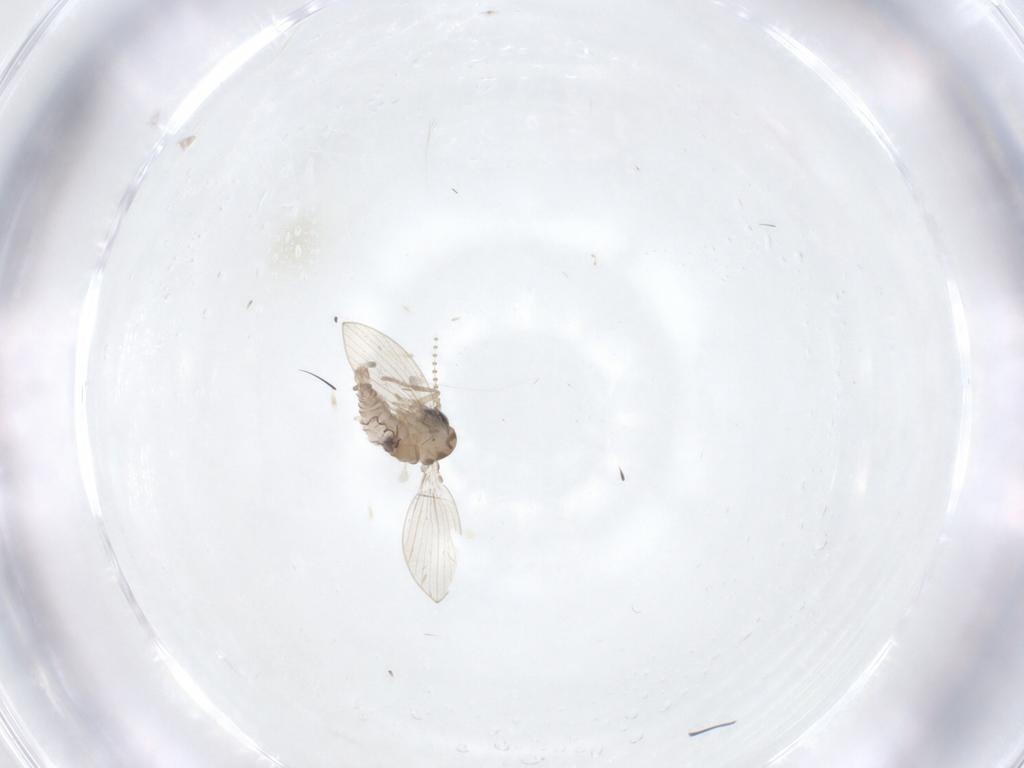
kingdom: Animalia
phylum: Arthropoda
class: Insecta
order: Diptera
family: Psychodidae
